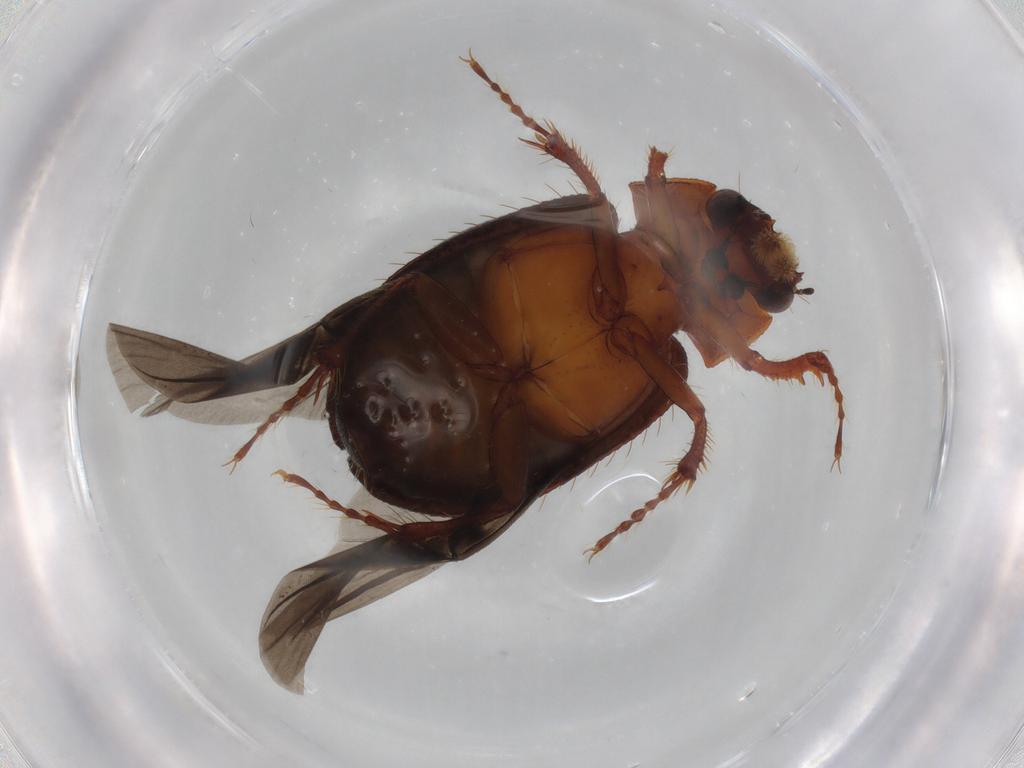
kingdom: Animalia
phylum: Arthropoda
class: Insecta
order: Coleoptera
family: Hybosoridae
